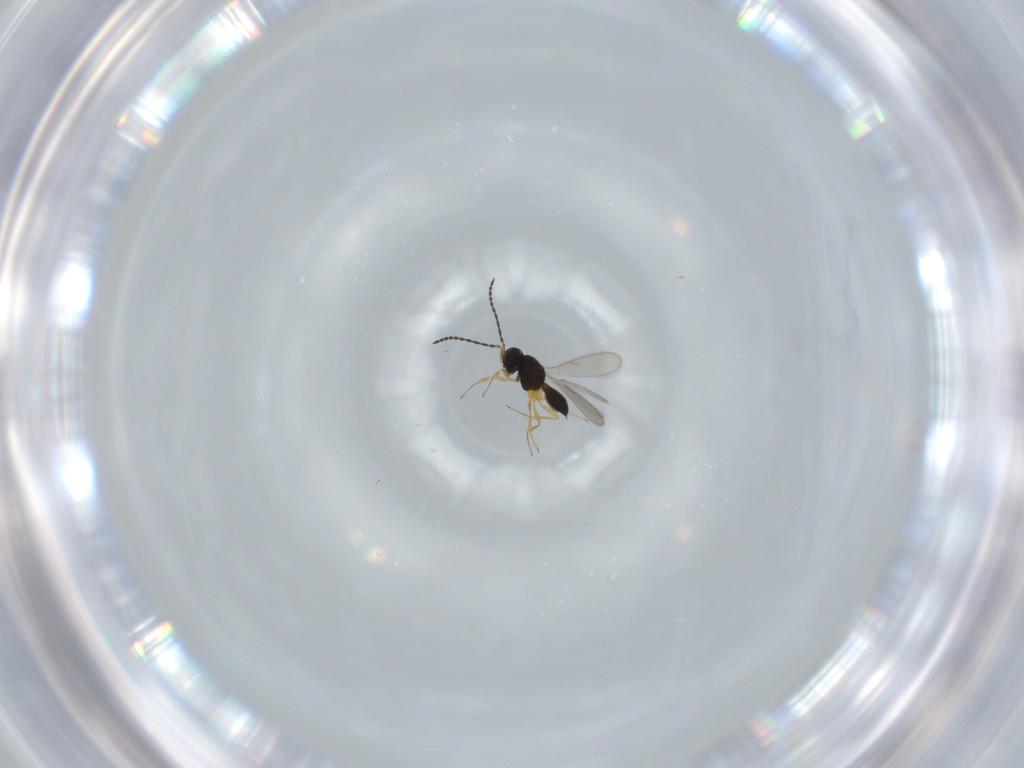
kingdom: Animalia
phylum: Arthropoda
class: Insecta
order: Hymenoptera
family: Scelionidae
